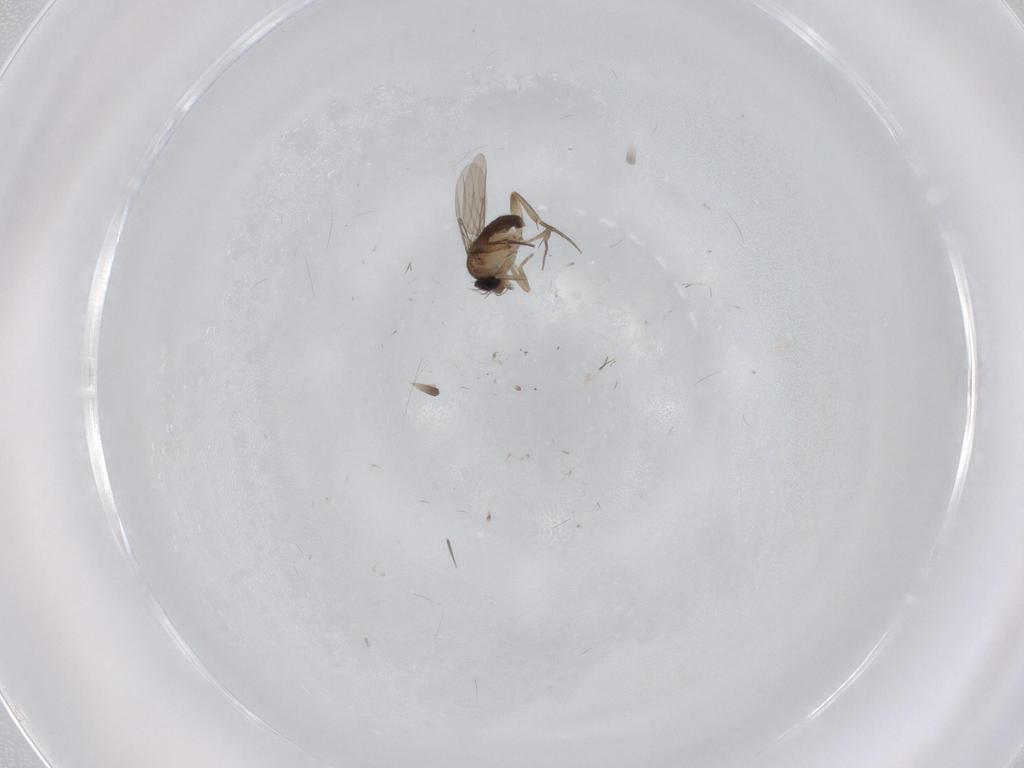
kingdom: Animalia
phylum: Arthropoda
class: Insecta
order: Diptera
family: Phoridae
